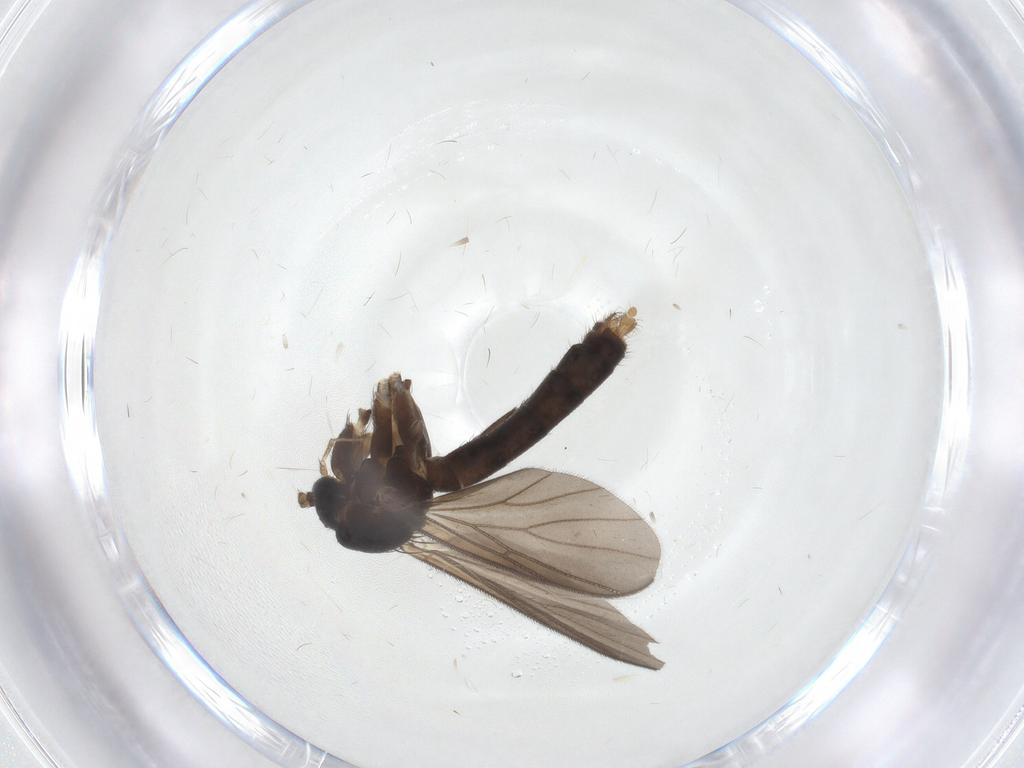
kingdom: Animalia
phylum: Arthropoda
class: Insecta
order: Diptera
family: Mycetophilidae
